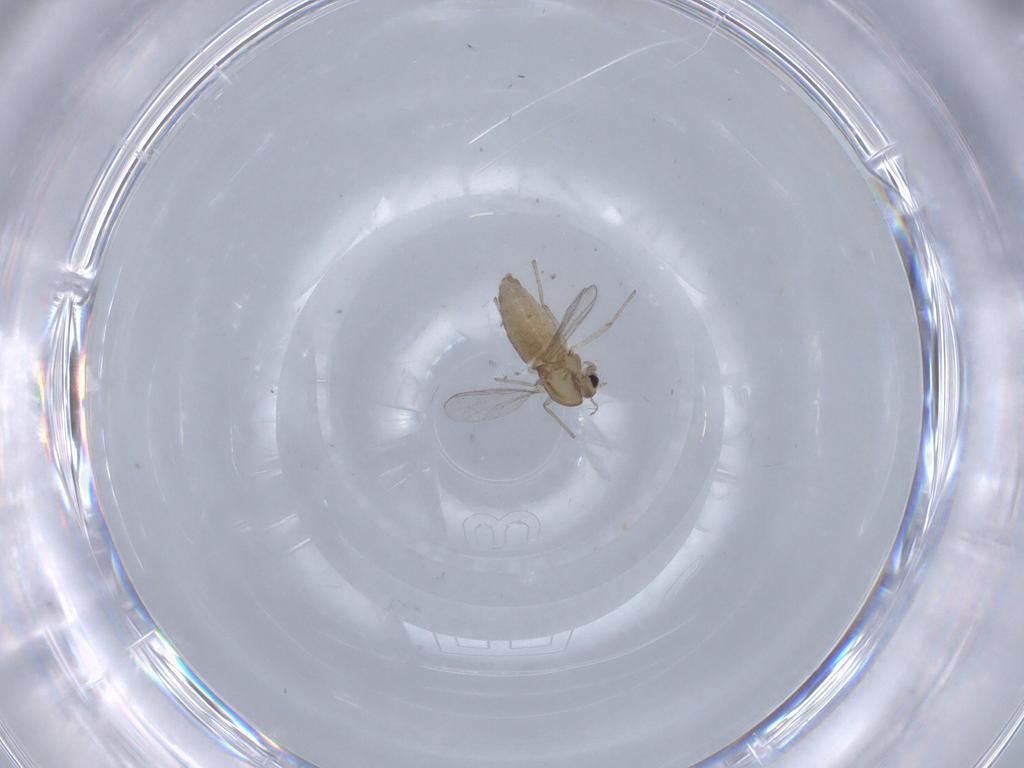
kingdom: Animalia
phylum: Arthropoda
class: Insecta
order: Diptera
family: Chironomidae
